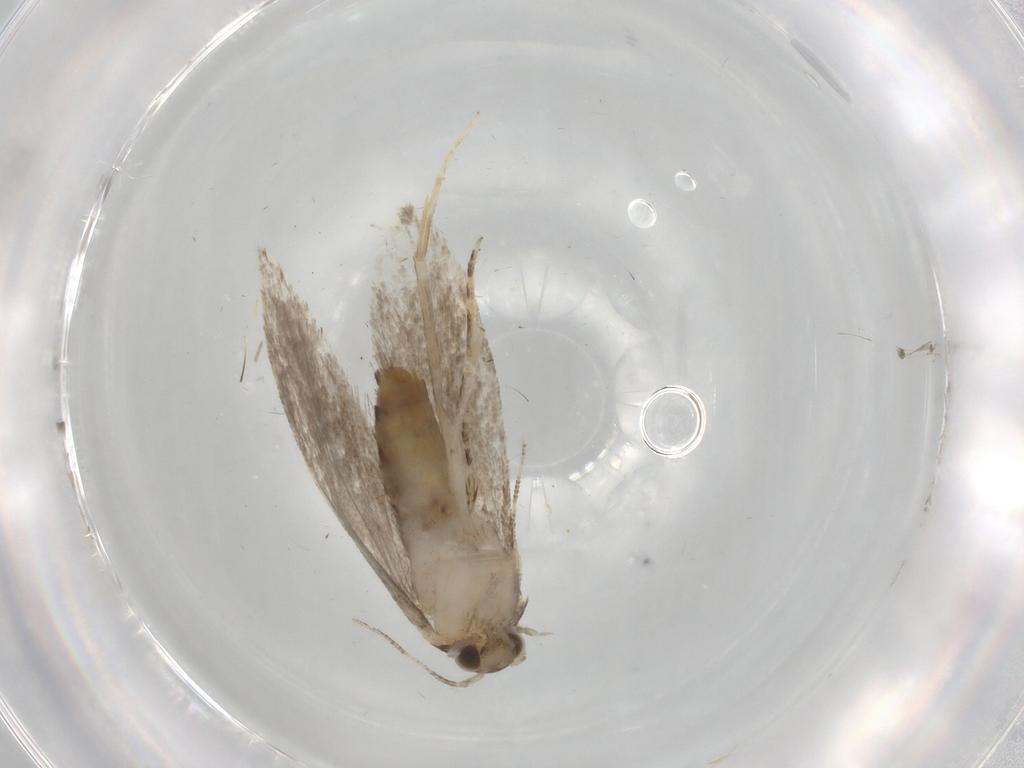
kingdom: Animalia
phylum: Arthropoda
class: Insecta
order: Lepidoptera
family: Tineidae
